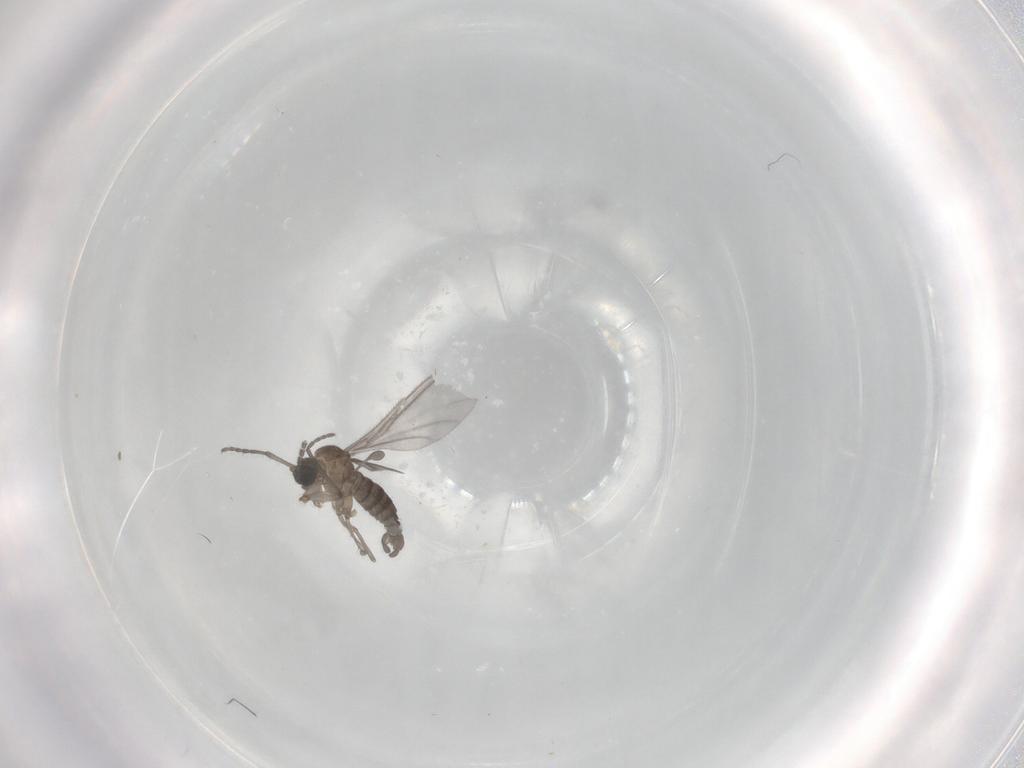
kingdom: Animalia
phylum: Arthropoda
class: Insecta
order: Diptera
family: Sciaridae
